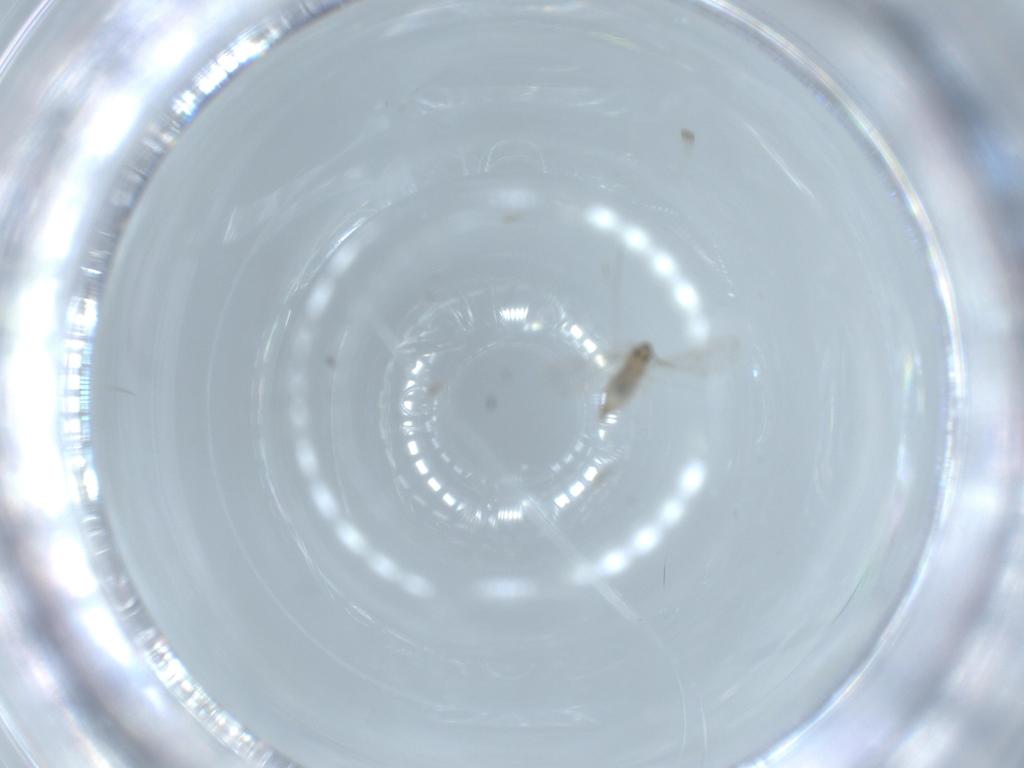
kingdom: Animalia
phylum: Arthropoda
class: Insecta
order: Diptera
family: Cecidomyiidae
